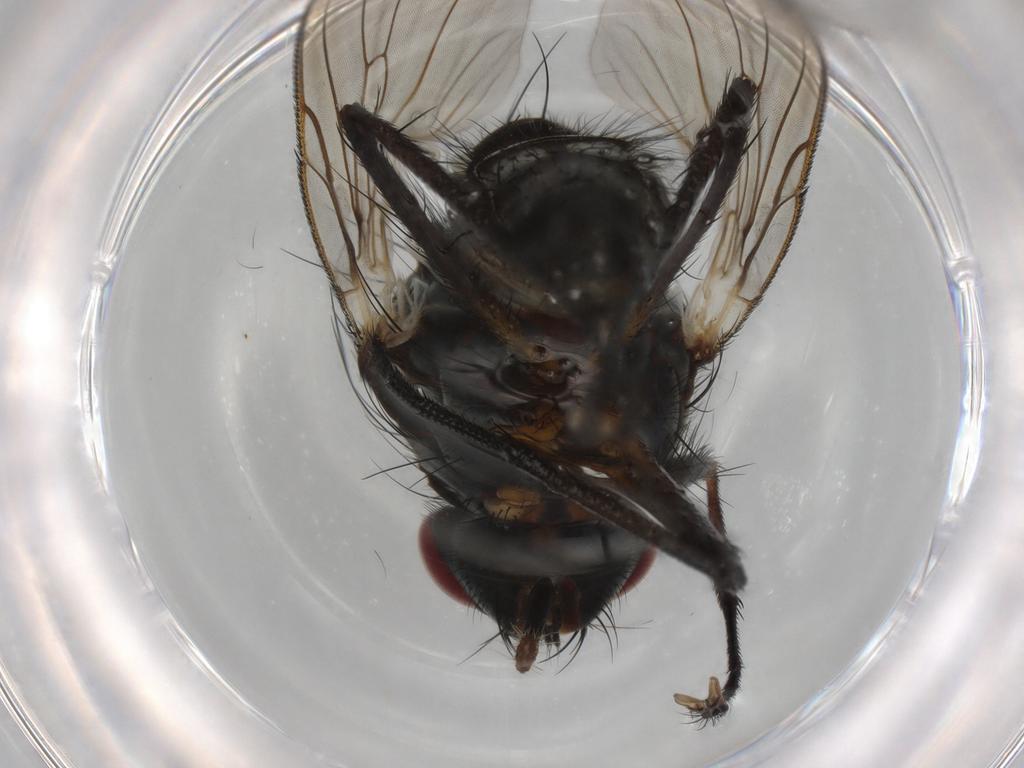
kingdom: Animalia
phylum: Arthropoda
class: Insecta
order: Diptera
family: Anthomyiidae
